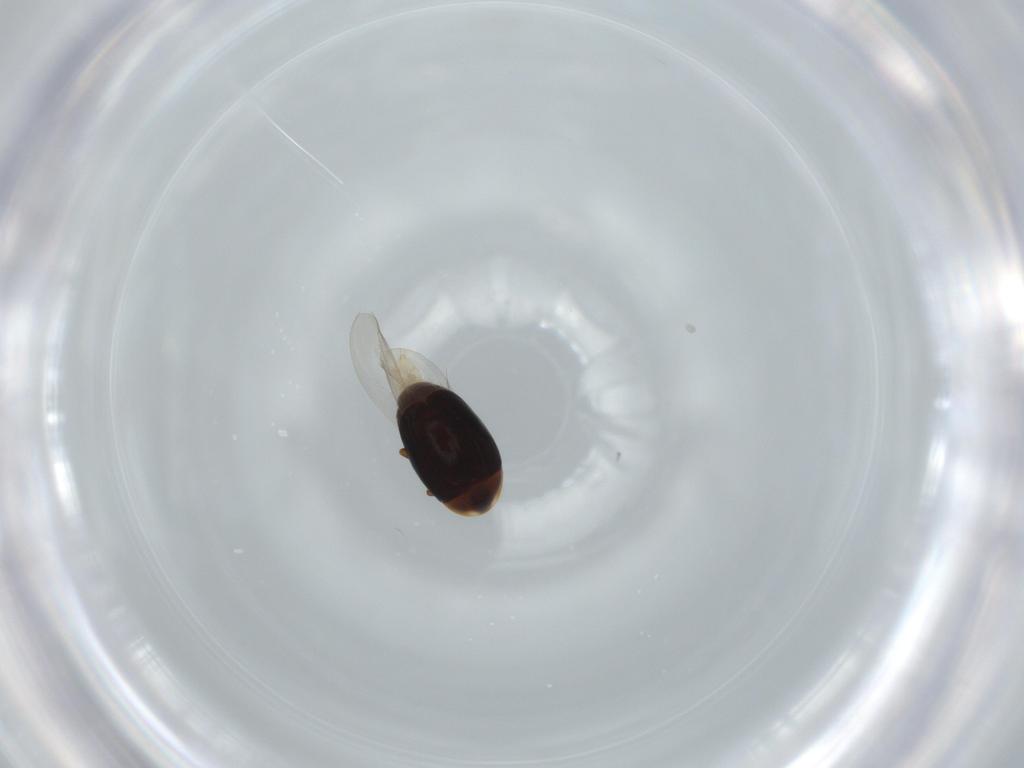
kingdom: Animalia
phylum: Arthropoda
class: Insecta
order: Coleoptera
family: Corylophidae
